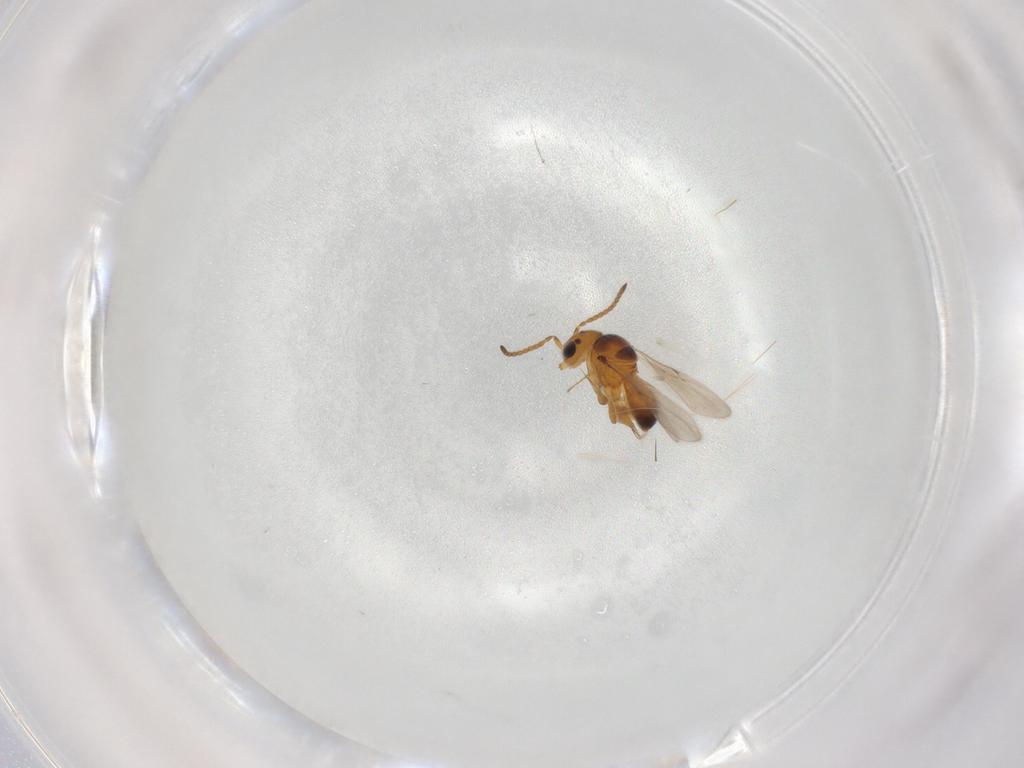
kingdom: Animalia
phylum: Arthropoda
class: Insecta
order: Hymenoptera
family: Scelionidae
